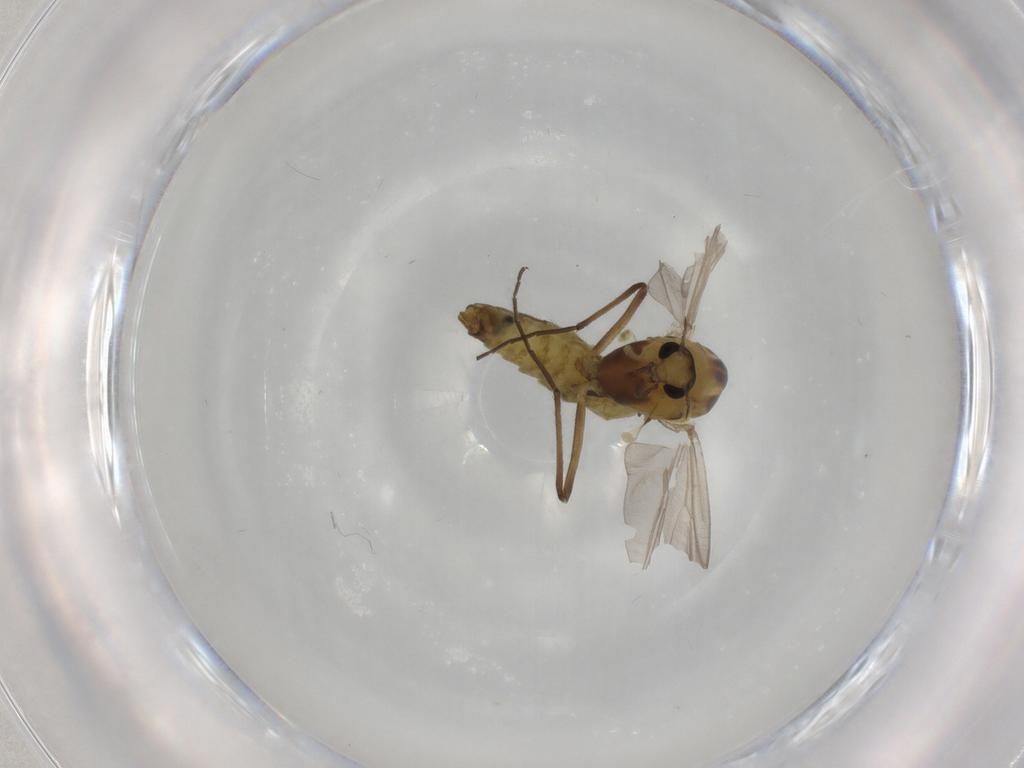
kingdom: Animalia
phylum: Arthropoda
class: Insecta
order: Diptera
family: Chironomidae
